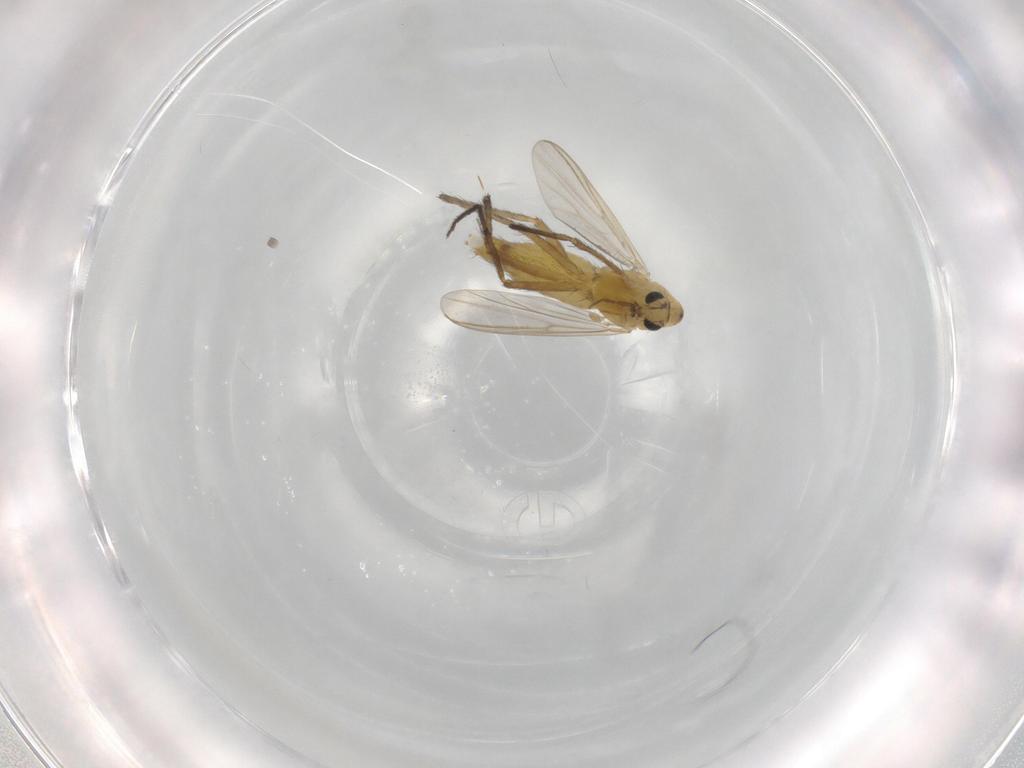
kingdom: Animalia
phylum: Arthropoda
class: Insecta
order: Diptera
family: Chironomidae
